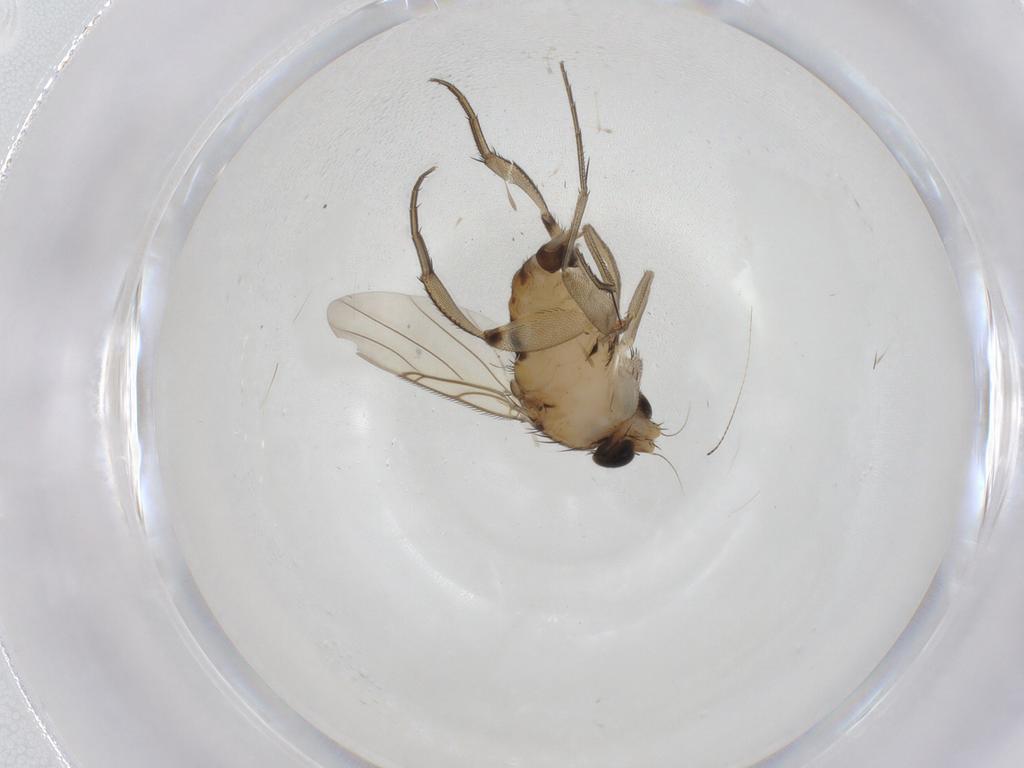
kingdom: Animalia
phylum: Arthropoda
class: Insecta
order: Diptera
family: Phoridae
